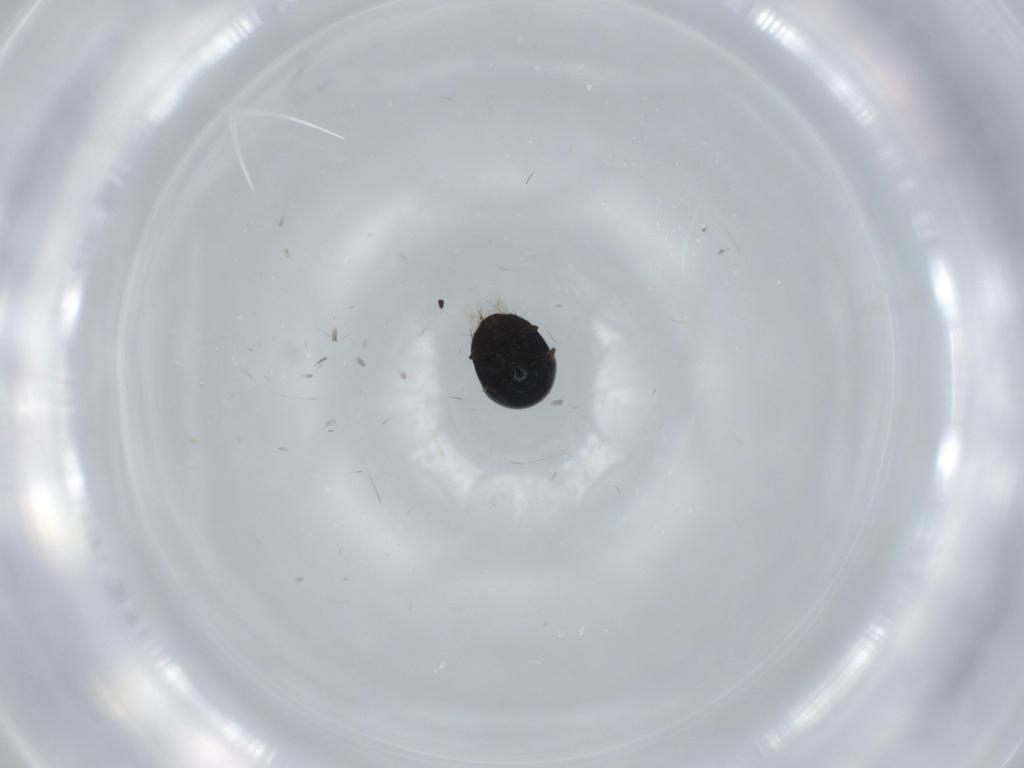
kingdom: Animalia
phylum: Arthropoda
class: Insecta
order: Coleoptera
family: Cybocephalidae
